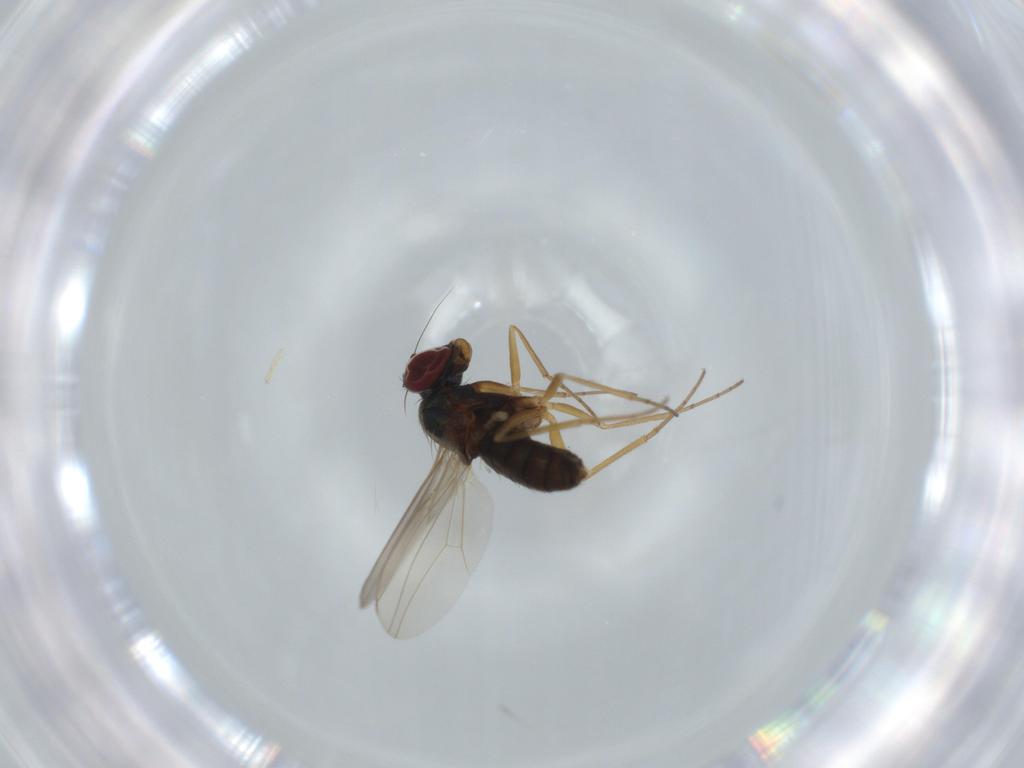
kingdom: Animalia
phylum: Arthropoda
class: Insecta
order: Diptera
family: Dolichopodidae
